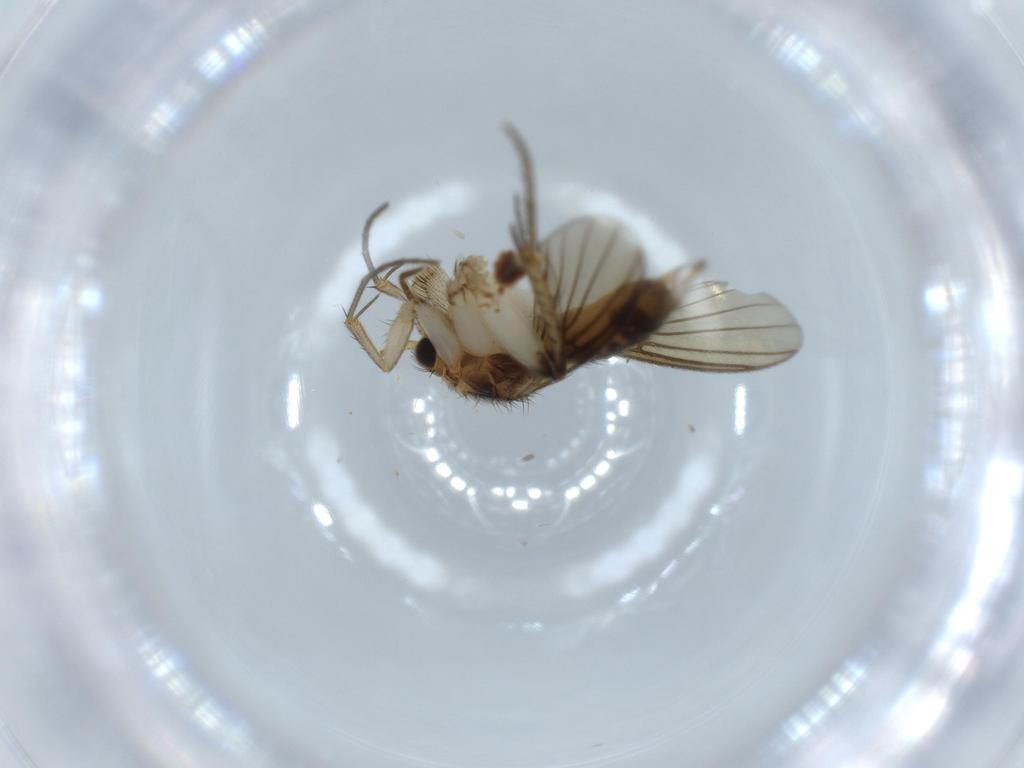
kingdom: Animalia
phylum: Arthropoda
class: Insecta
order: Diptera
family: Mycetophilidae
